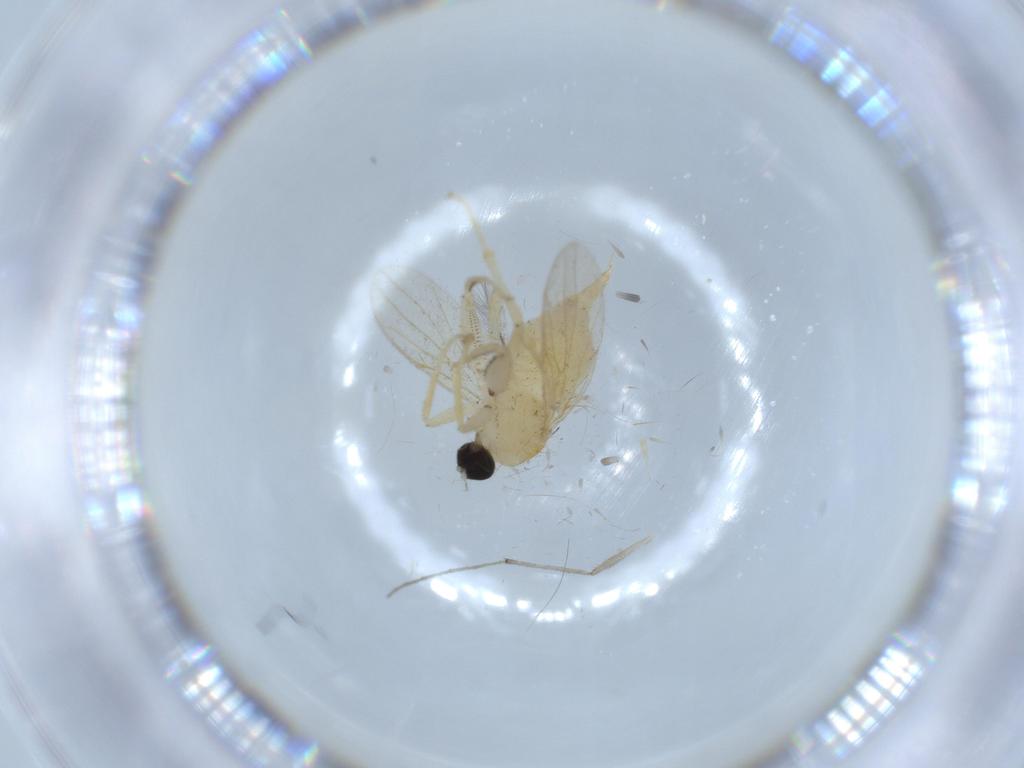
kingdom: Animalia
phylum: Arthropoda
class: Insecta
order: Diptera
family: Chironomidae
